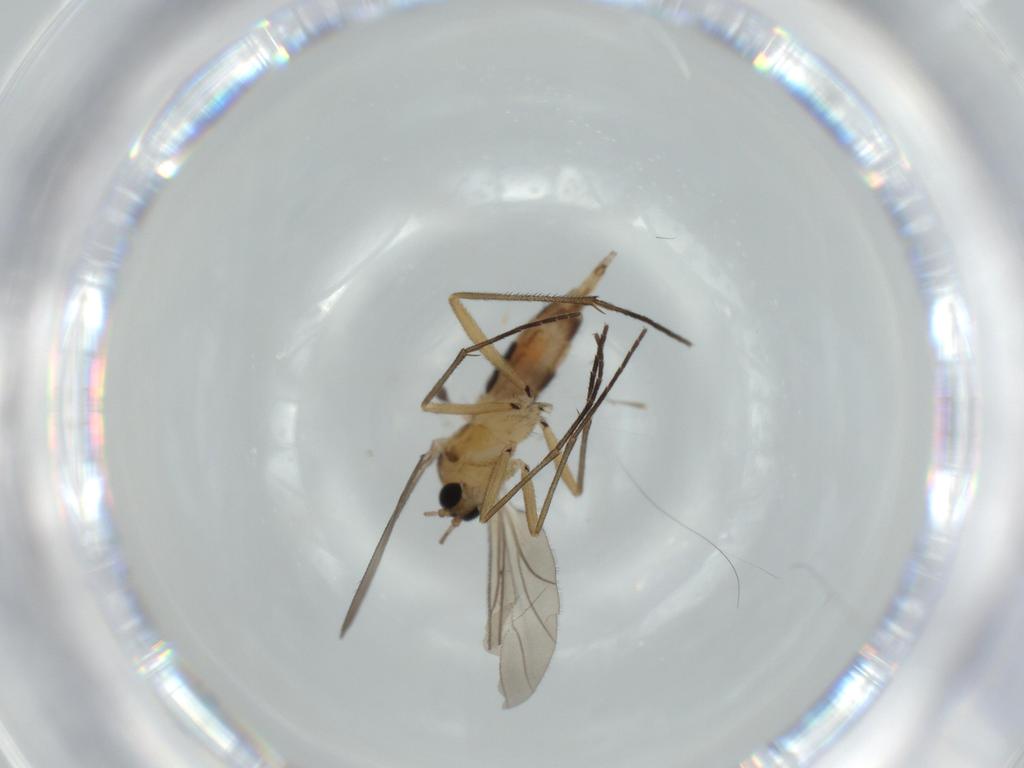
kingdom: Animalia
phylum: Arthropoda
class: Insecta
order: Diptera
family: Sciaridae
